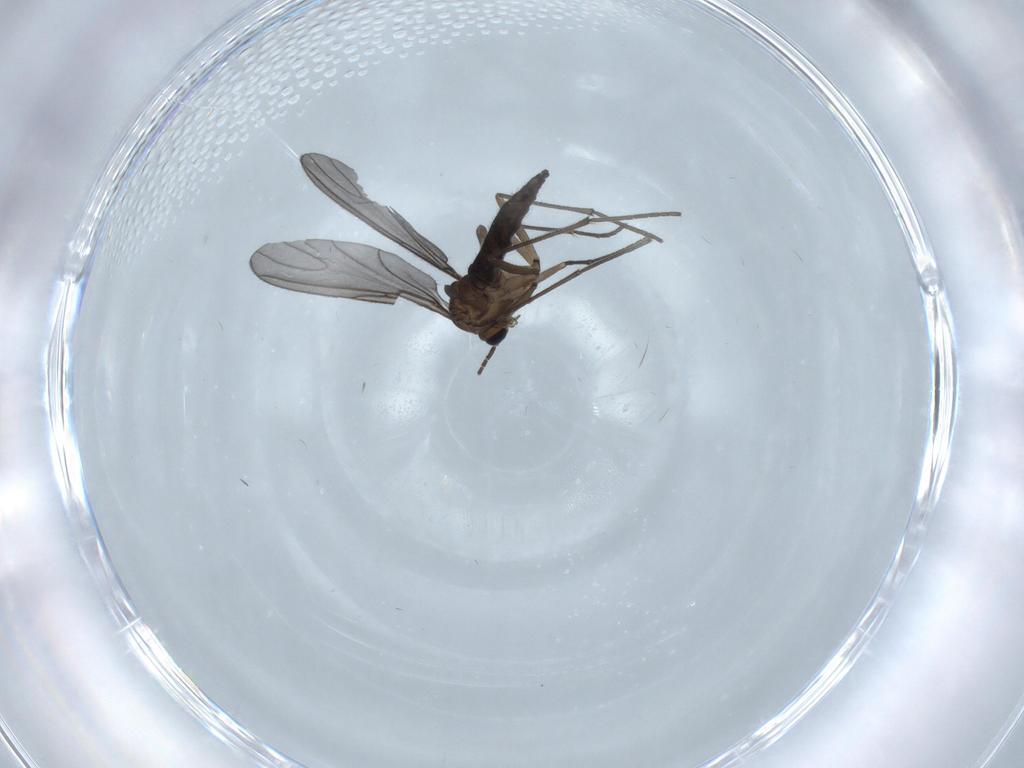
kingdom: Animalia
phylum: Arthropoda
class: Insecta
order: Diptera
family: Sciaridae
